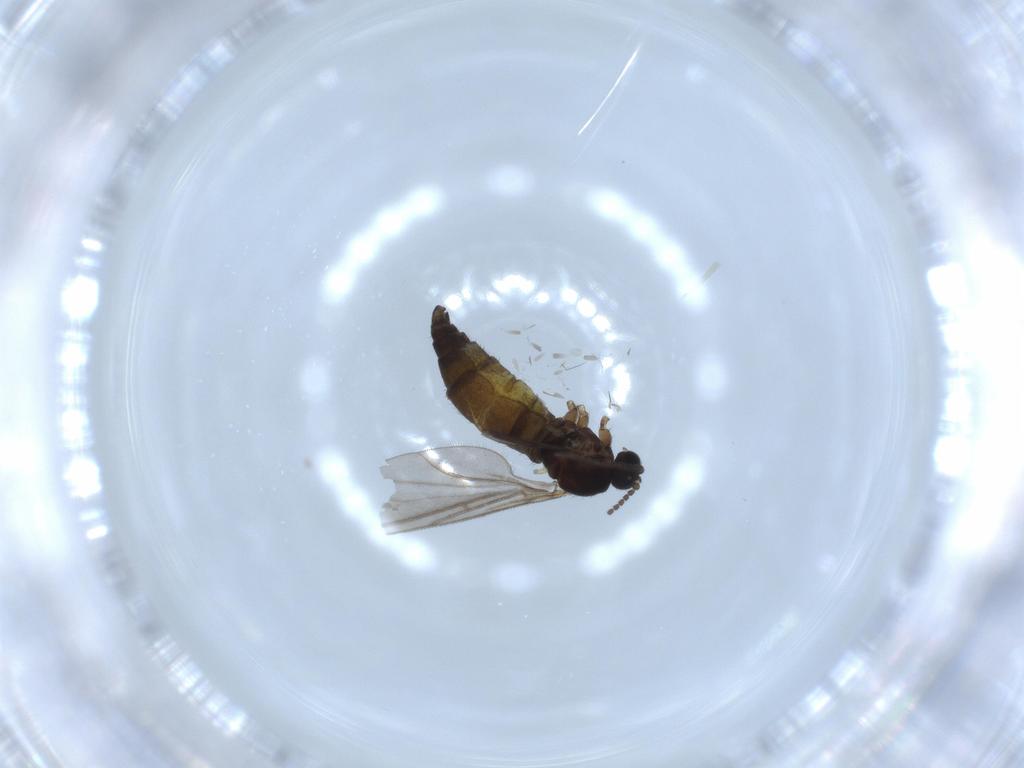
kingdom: Animalia
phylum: Arthropoda
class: Insecta
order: Diptera
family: Sciaridae
